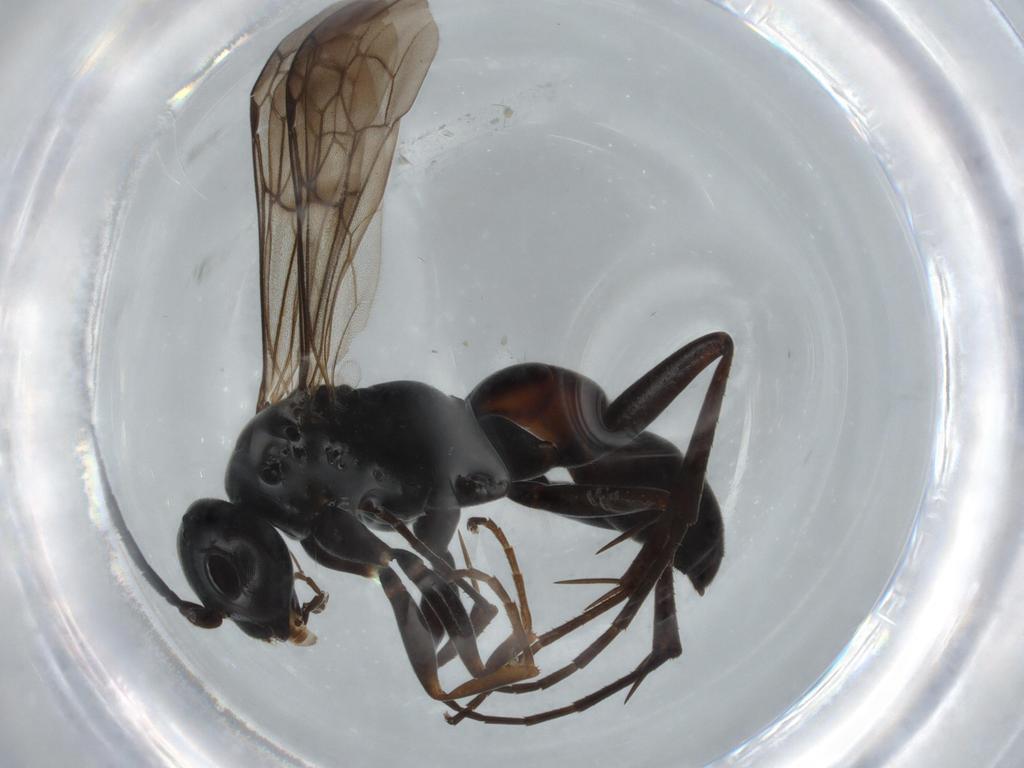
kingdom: Animalia
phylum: Arthropoda
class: Insecta
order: Hymenoptera
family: Bethylidae
